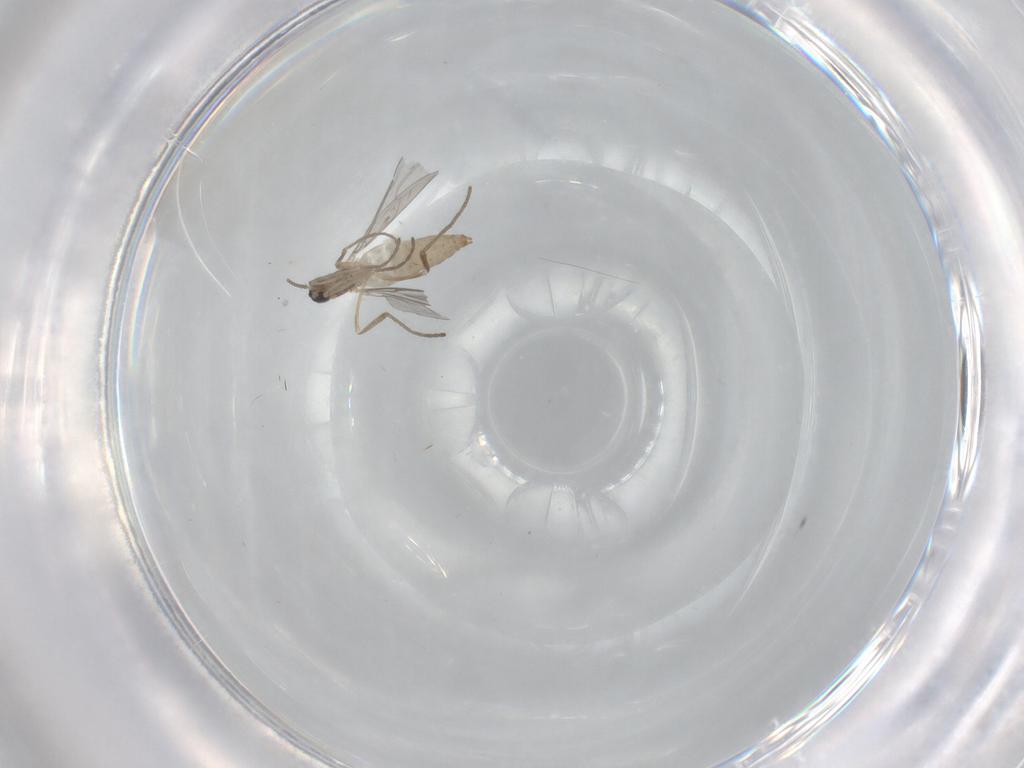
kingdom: Animalia
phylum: Arthropoda
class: Insecta
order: Diptera
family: Cecidomyiidae
